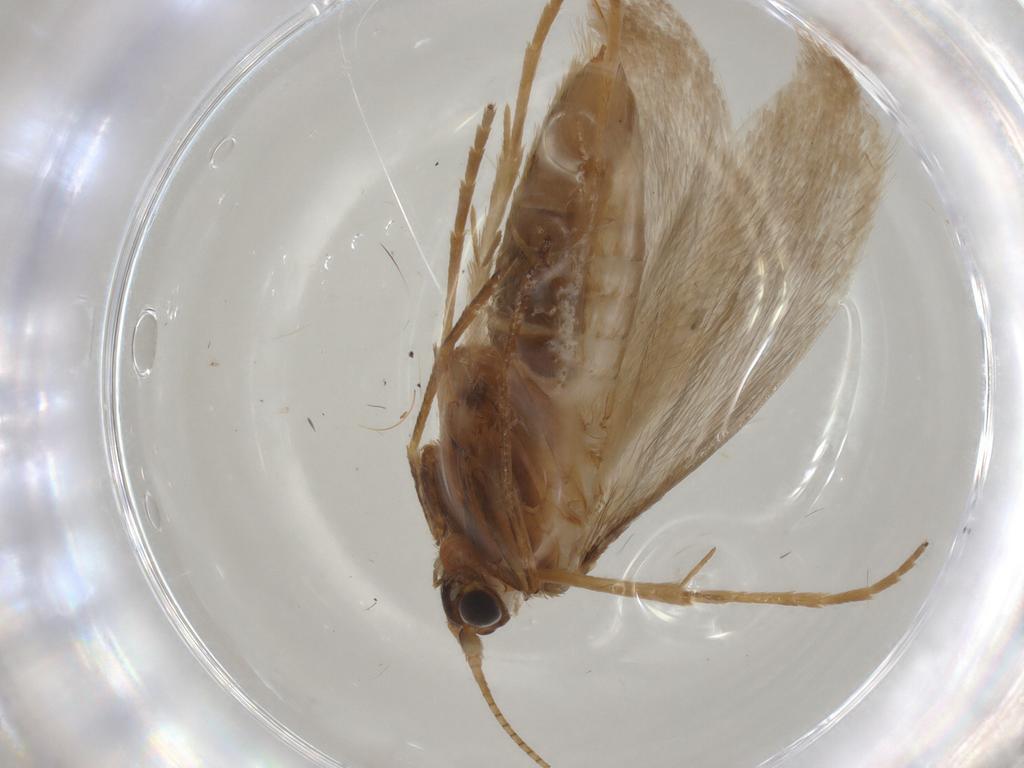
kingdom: Animalia
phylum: Arthropoda
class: Insecta
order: Lepidoptera
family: Adelidae
